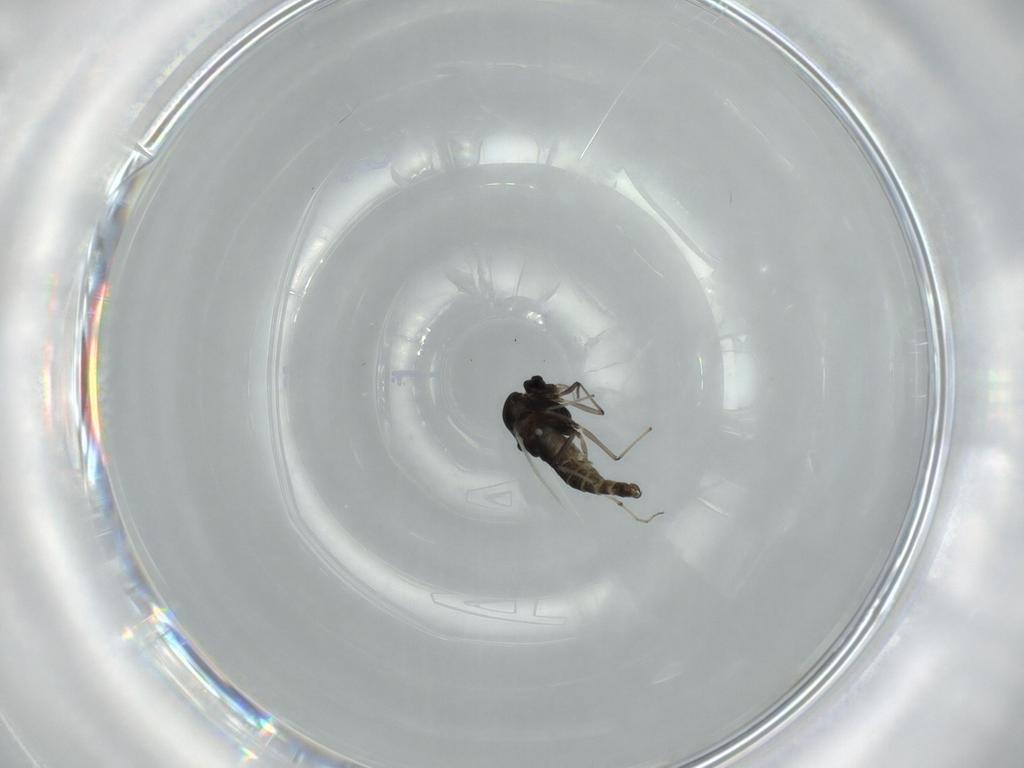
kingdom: Animalia
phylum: Arthropoda
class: Insecta
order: Diptera
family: Chironomidae
